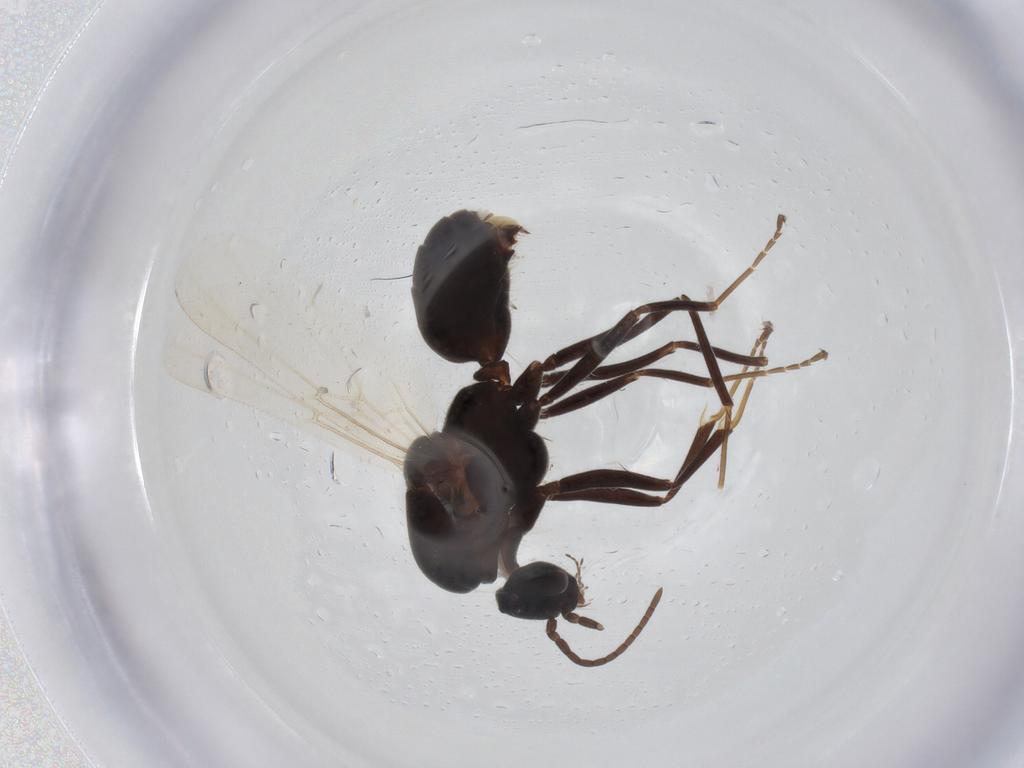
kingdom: Animalia
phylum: Arthropoda
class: Insecta
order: Hymenoptera
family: Formicidae
